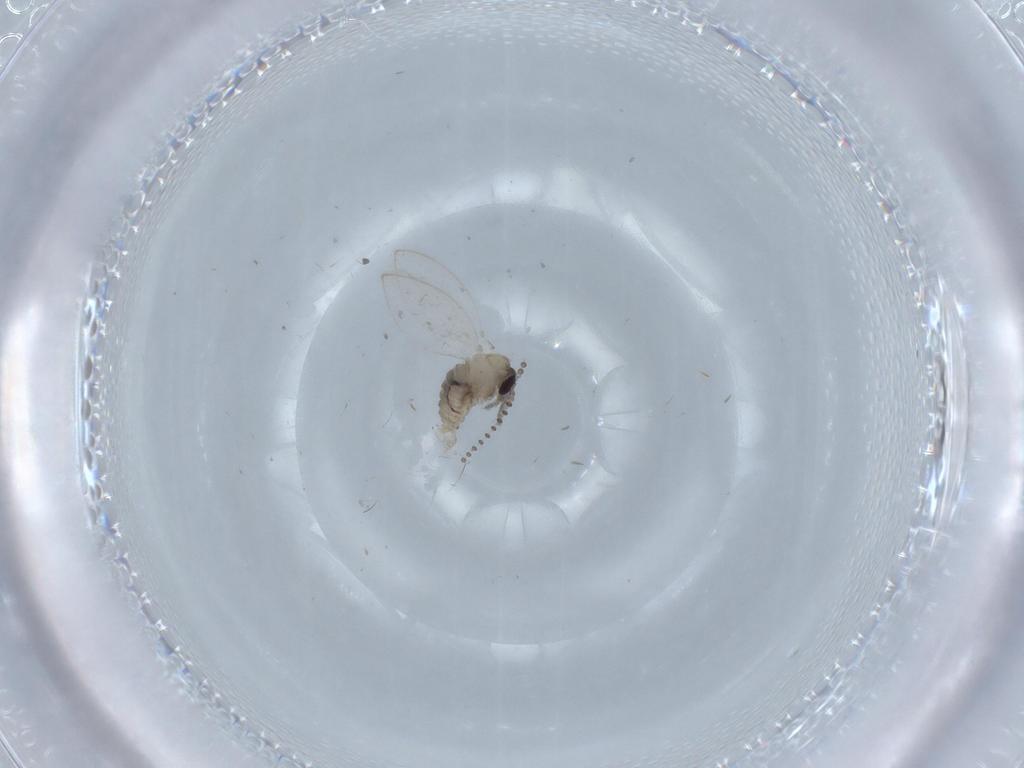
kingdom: Animalia
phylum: Arthropoda
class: Insecta
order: Diptera
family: Psychodidae
